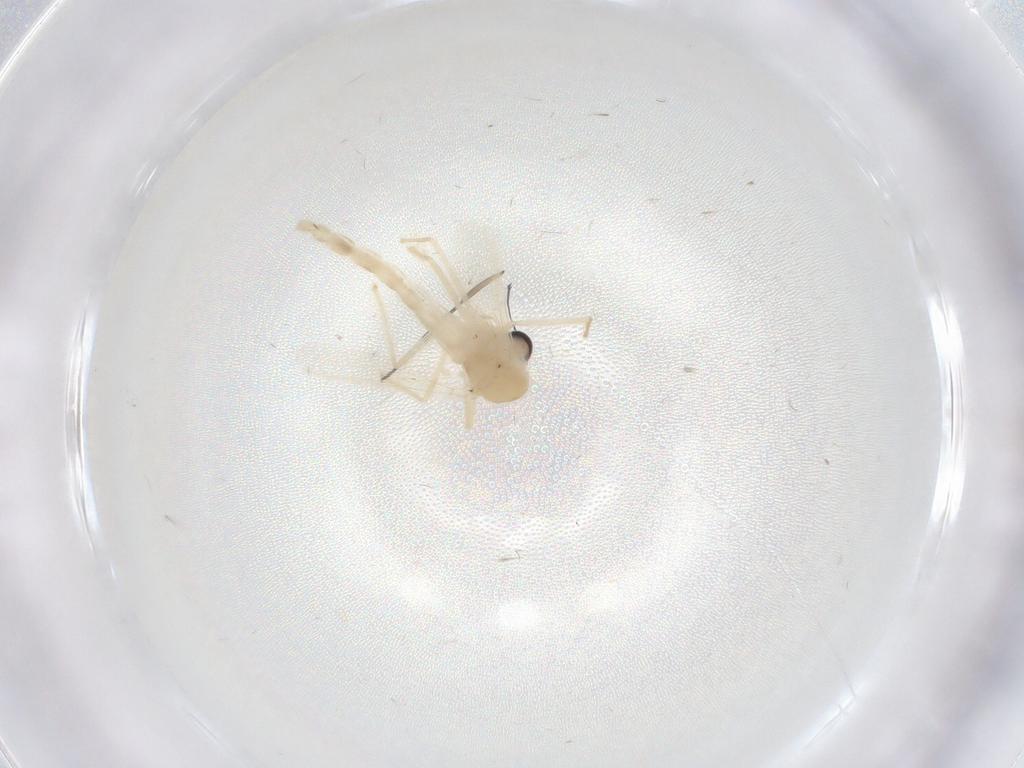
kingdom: Animalia
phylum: Arthropoda
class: Insecta
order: Diptera
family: Chironomidae
